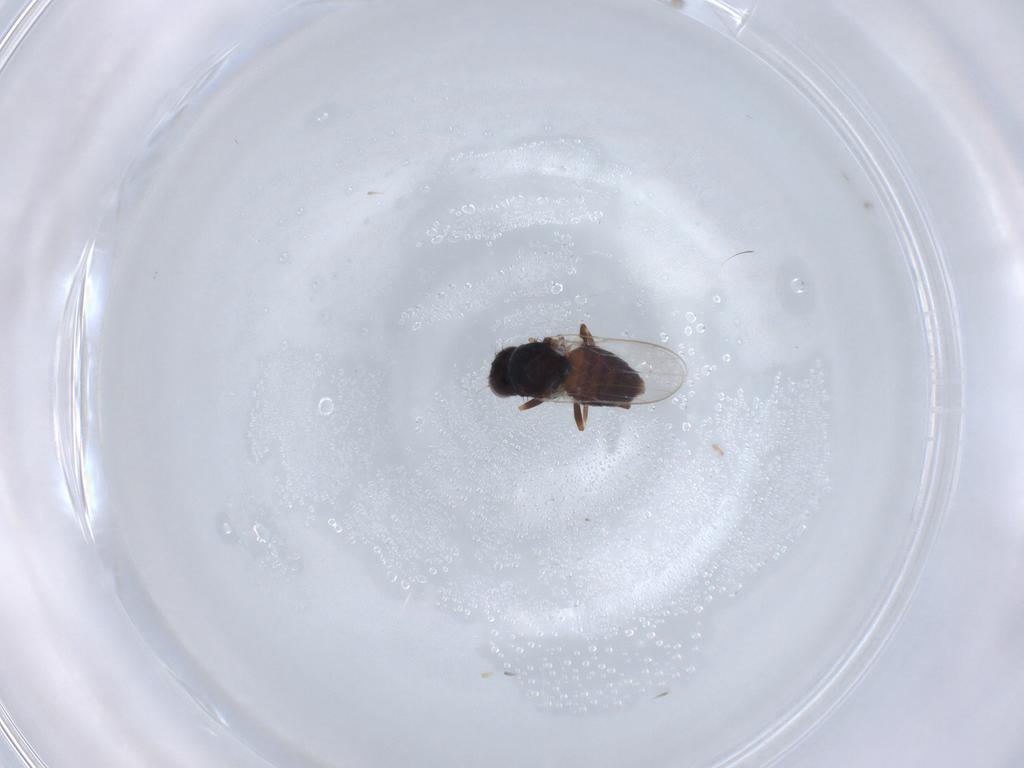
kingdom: Animalia
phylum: Arthropoda
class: Insecta
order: Diptera
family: Chloropidae
